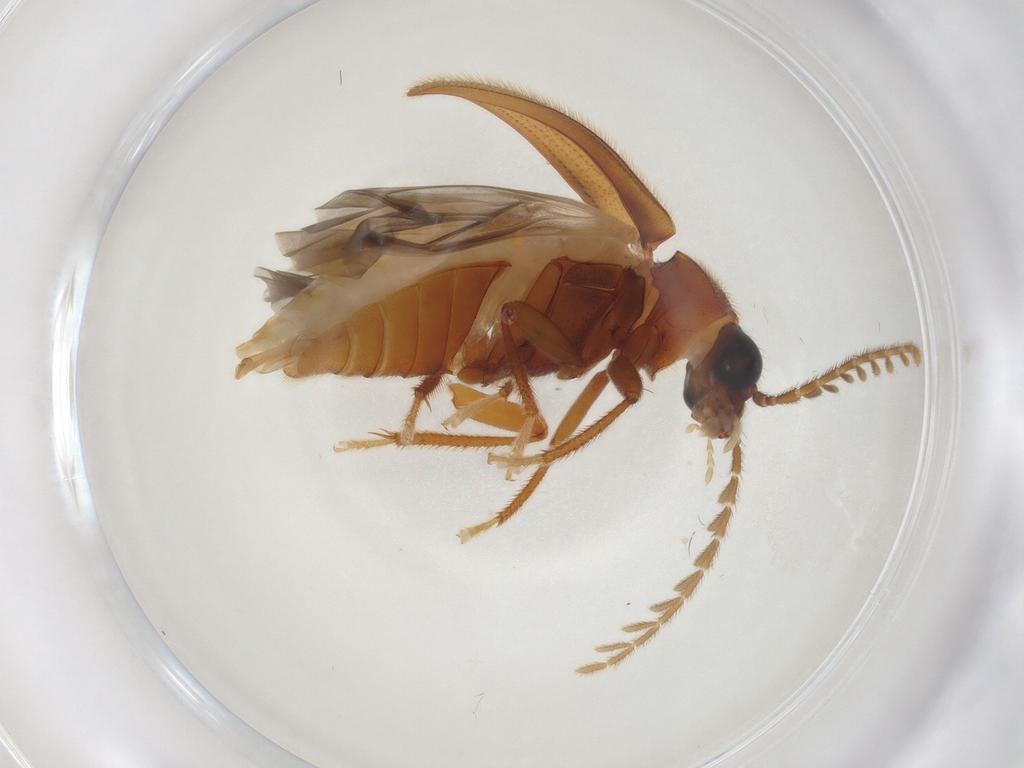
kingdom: Animalia
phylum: Arthropoda
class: Insecta
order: Coleoptera
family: Ptilodactylidae
